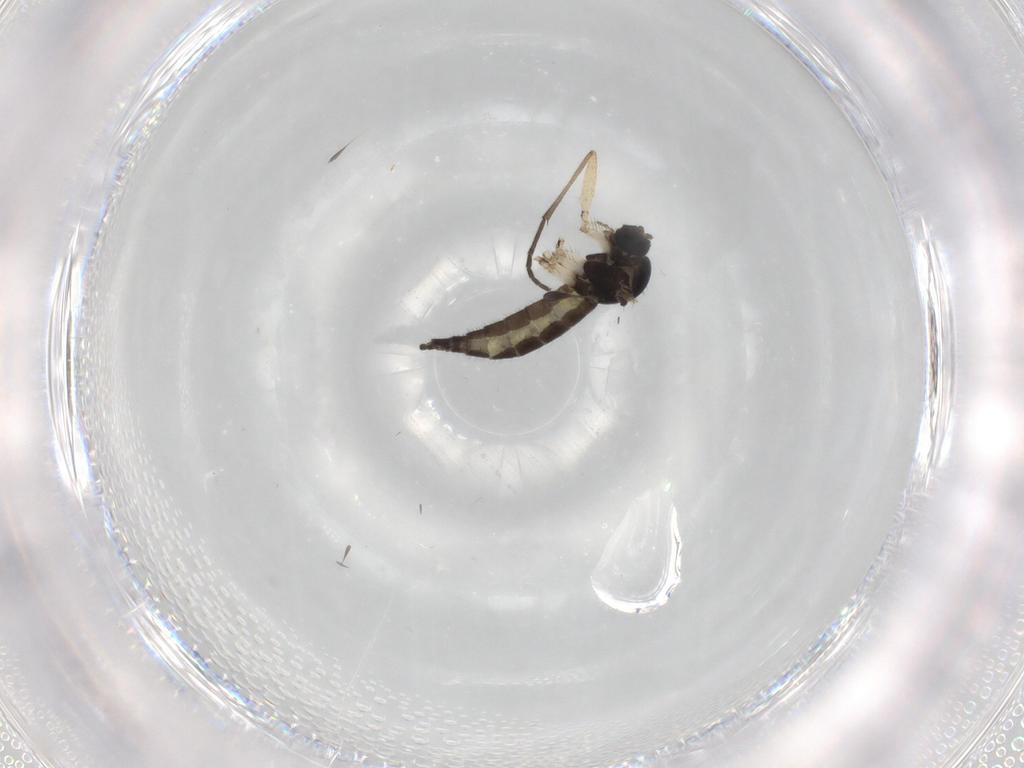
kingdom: Animalia
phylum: Arthropoda
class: Insecta
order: Diptera
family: Sciaridae
